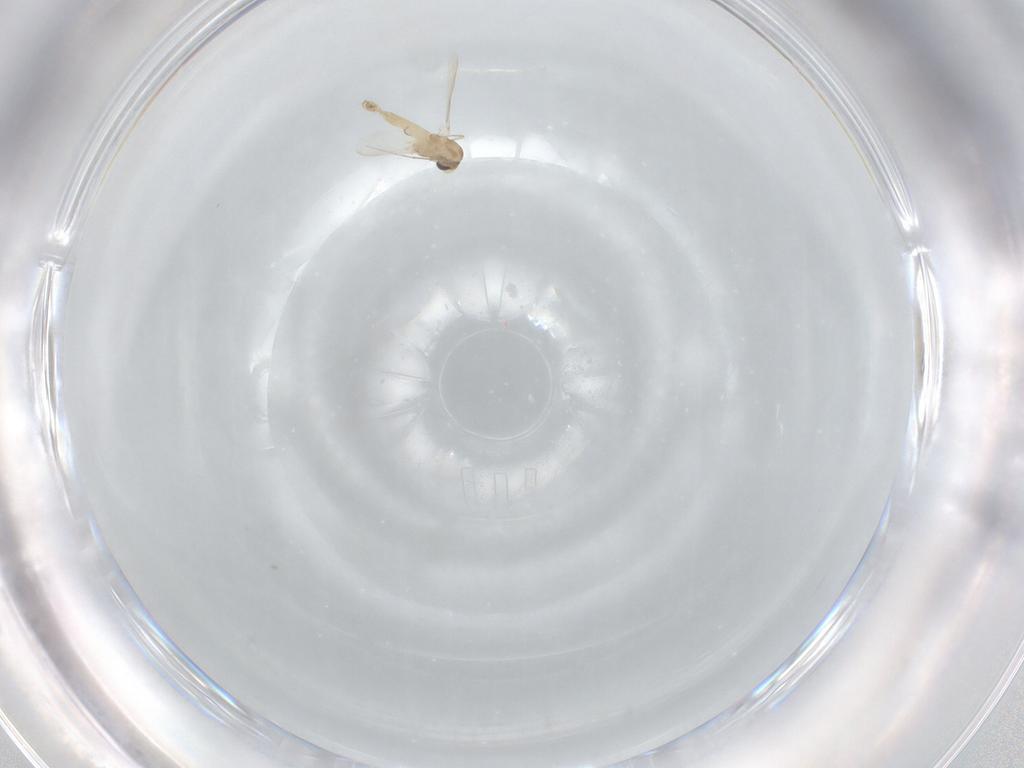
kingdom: Animalia
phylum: Arthropoda
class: Insecta
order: Diptera
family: Chironomidae
